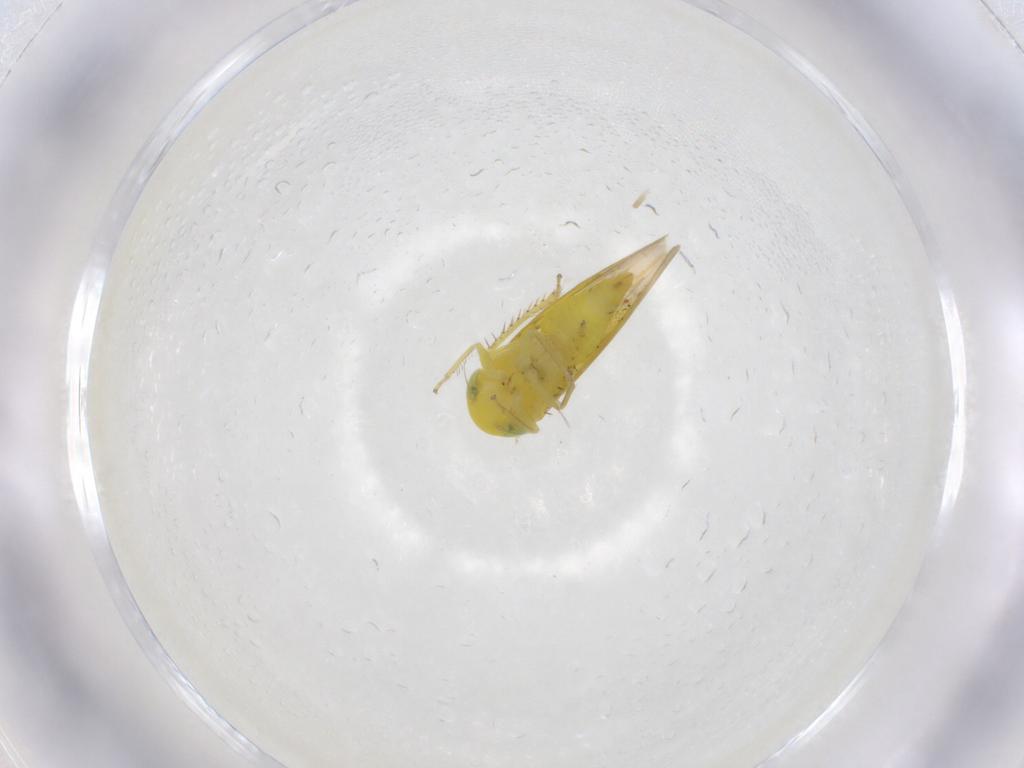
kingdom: Animalia
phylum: Arthropoda
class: Insecta
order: Hemiptera
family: Cicadellidae
